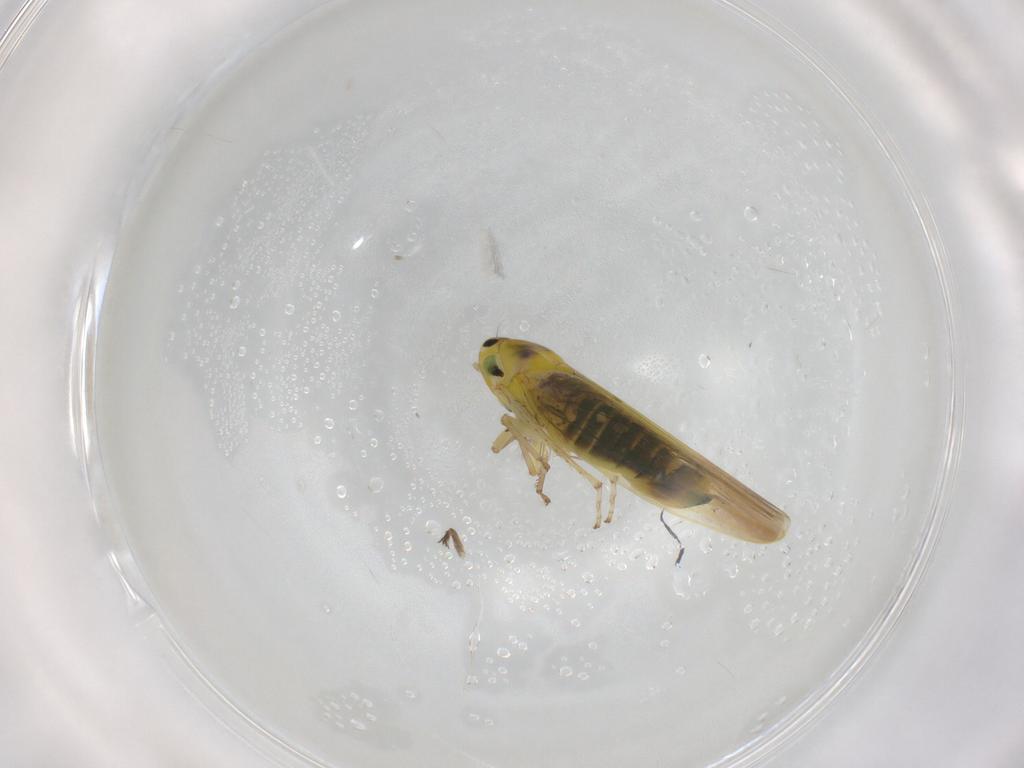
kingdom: Animalia
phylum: Arthropoda
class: Insecta
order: Hemiptera
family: Cicadellidae
